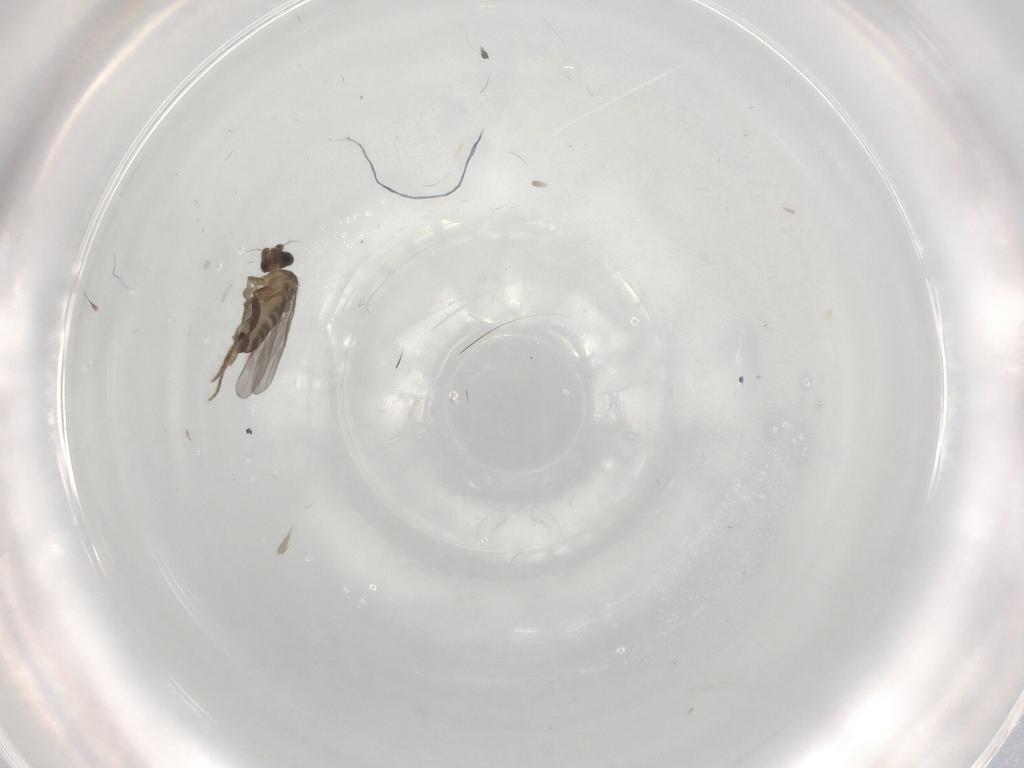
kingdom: Animalia
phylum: Arthropoda
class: Insecta
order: Diptera
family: Chironomidae
